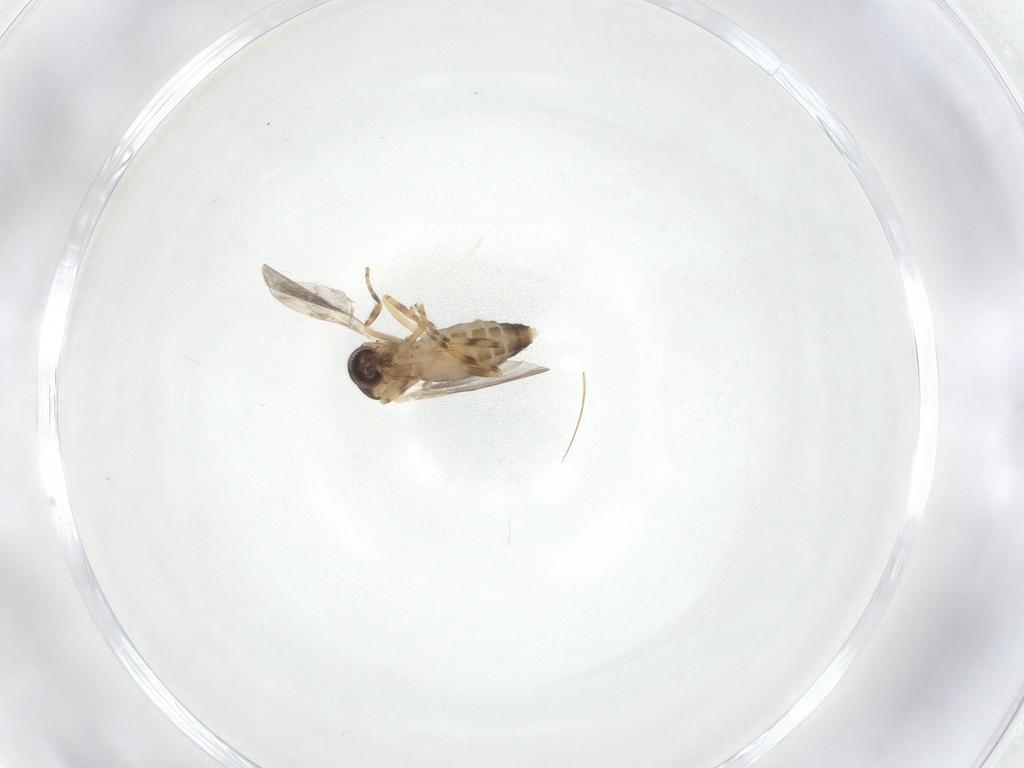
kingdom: Animalia
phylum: Arthropoda
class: Insecta
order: Diptera
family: Ceratopogonidae
